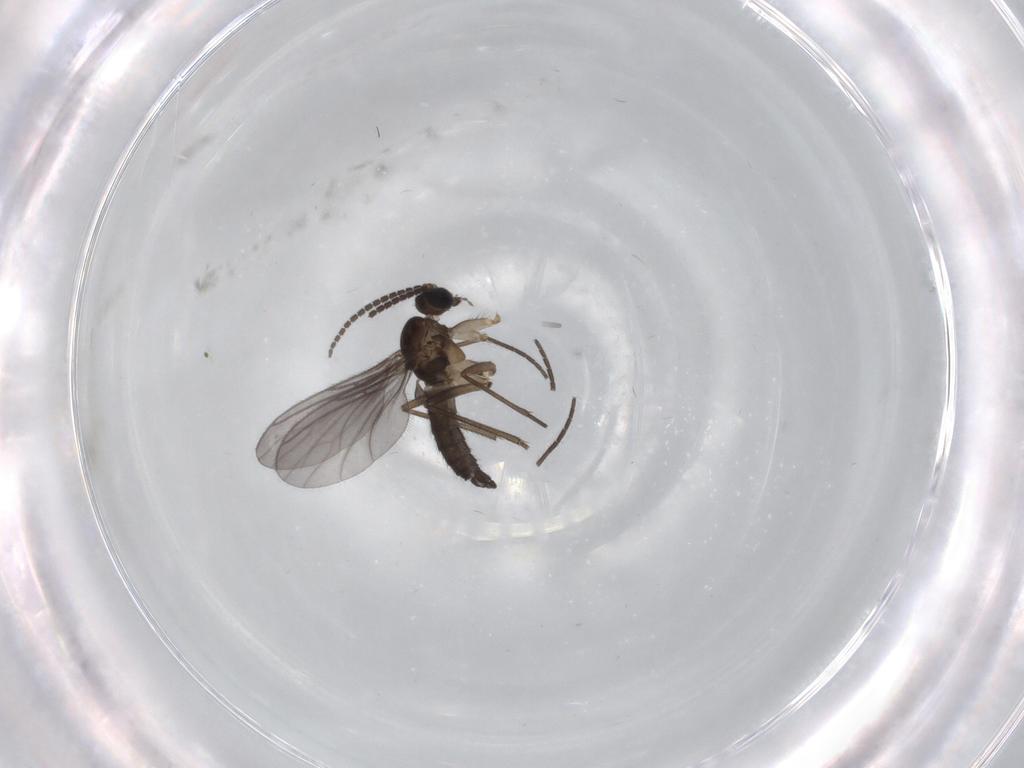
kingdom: Animalia
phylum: Arthropoda
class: Insecta
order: Diptera
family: Sciaridae
